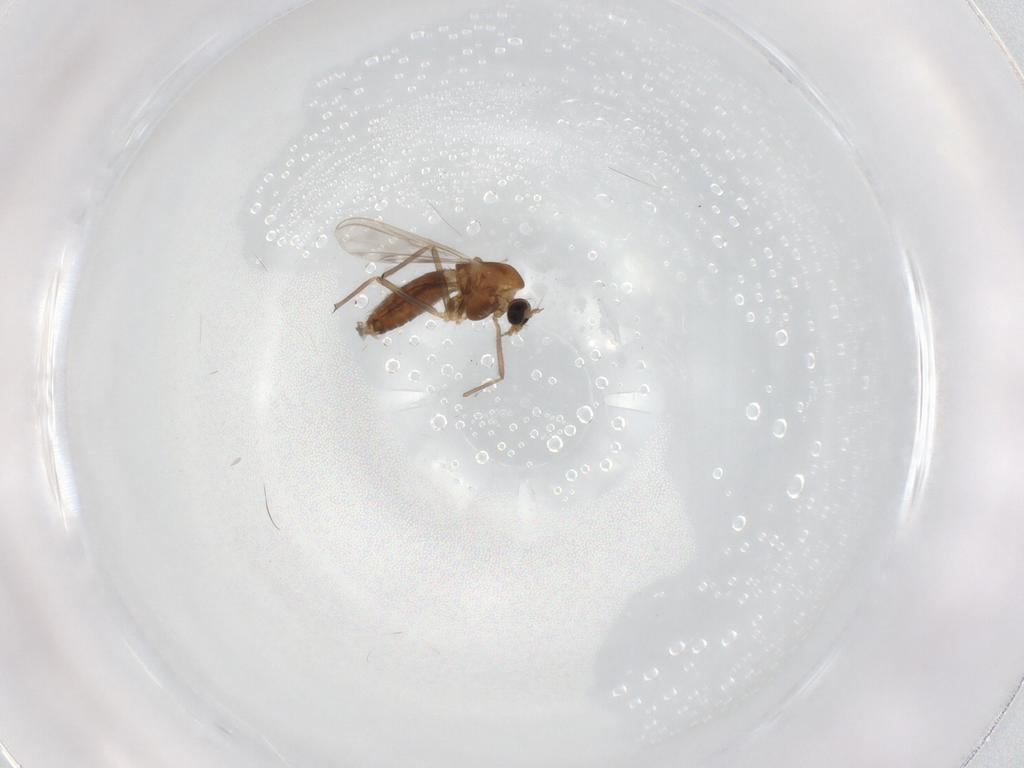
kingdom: Animalia
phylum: Arthropoda
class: Insecta
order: Diptera
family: Chironomidae
